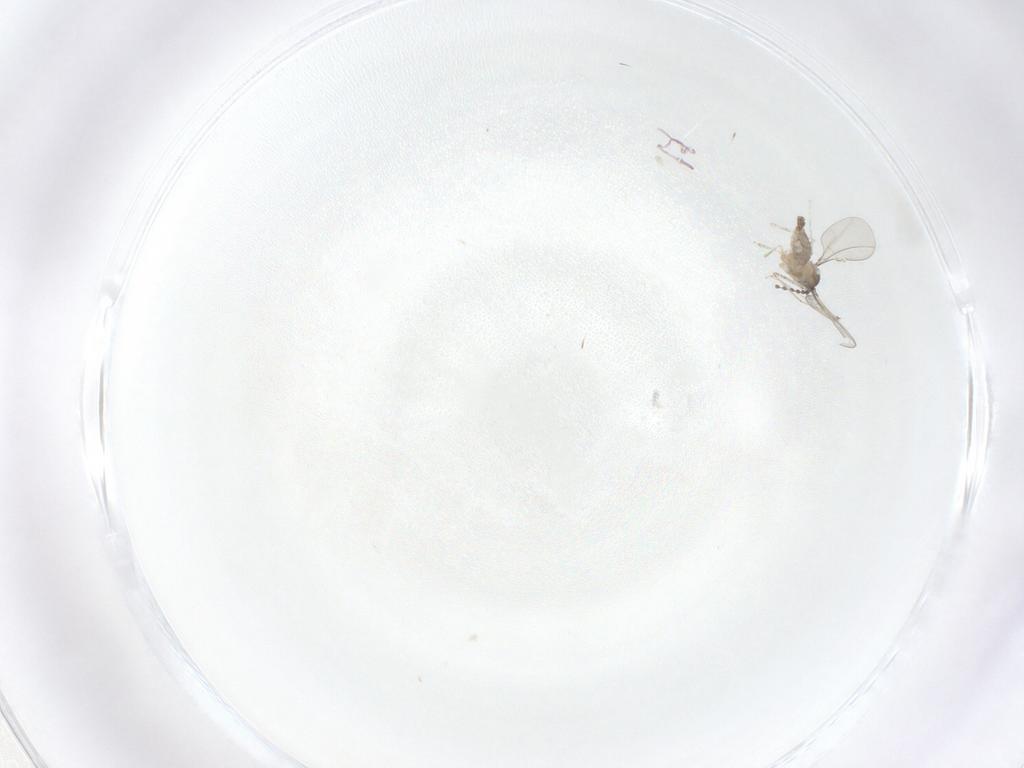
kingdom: Animalia
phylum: Arthropoda
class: Insecta
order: Diptera
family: Cecidomyiidae
